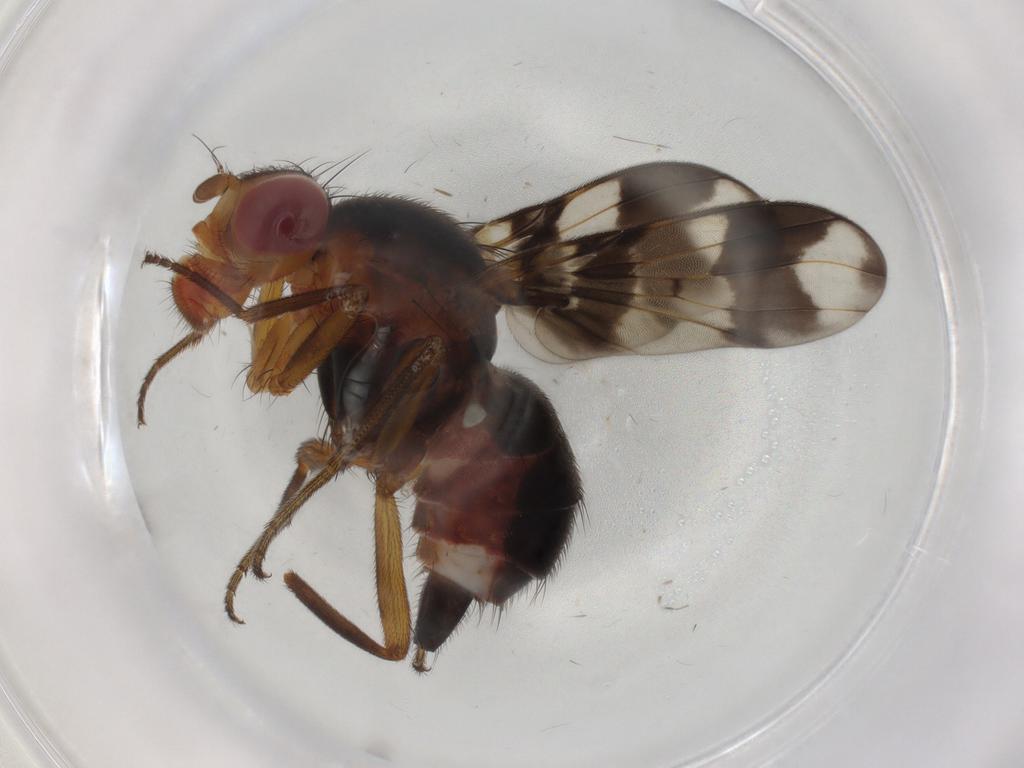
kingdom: Animalia
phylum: Arthropoda
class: Insecta
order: Diptera
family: Richardiidae
